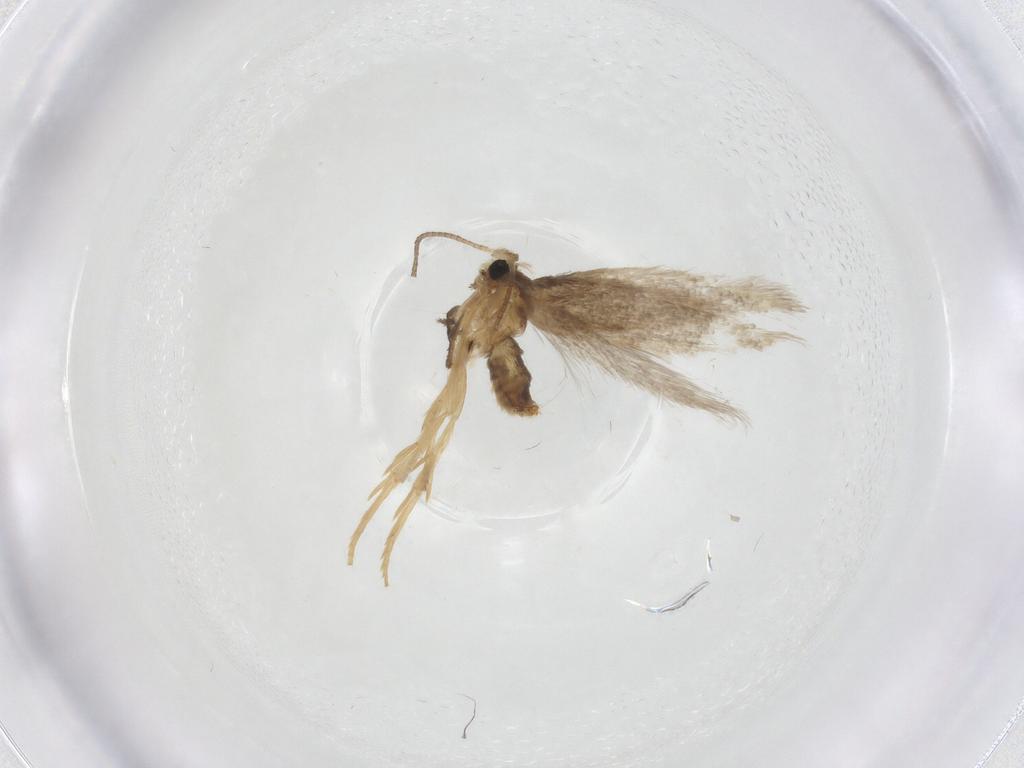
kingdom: Animalia
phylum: Arthropoda
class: Insecta
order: Lepidoptera
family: Nepticulidae
